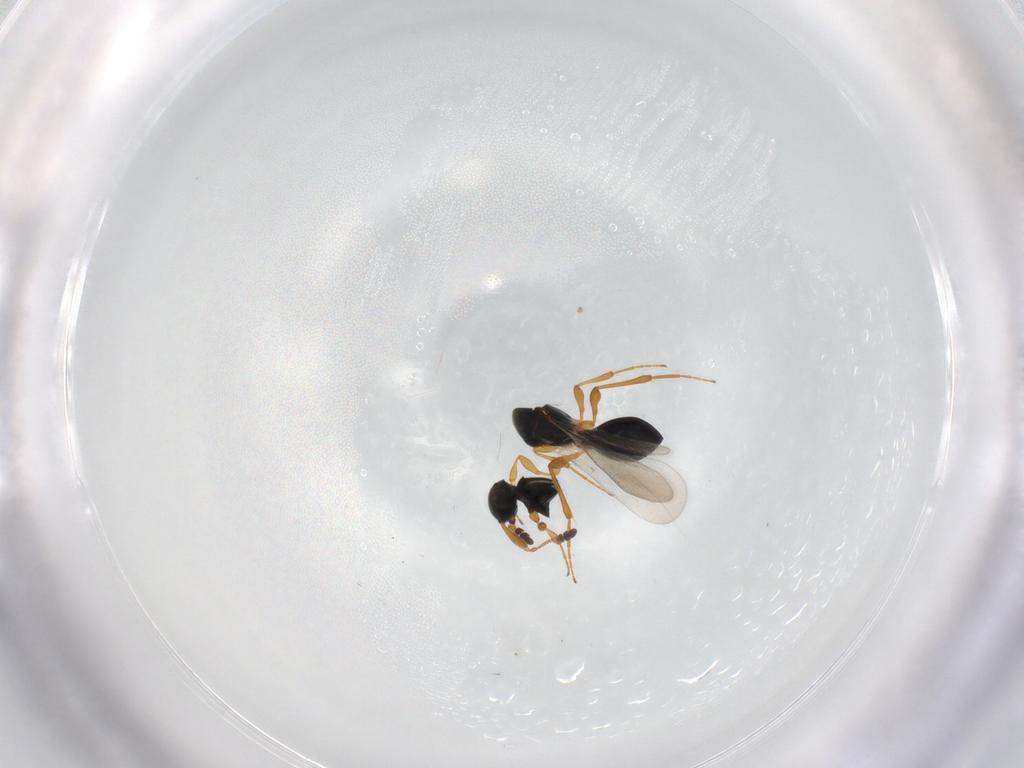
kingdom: Animalia
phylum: Arthropoda
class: Insecta
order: Hymenoptera
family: Platygastridae
